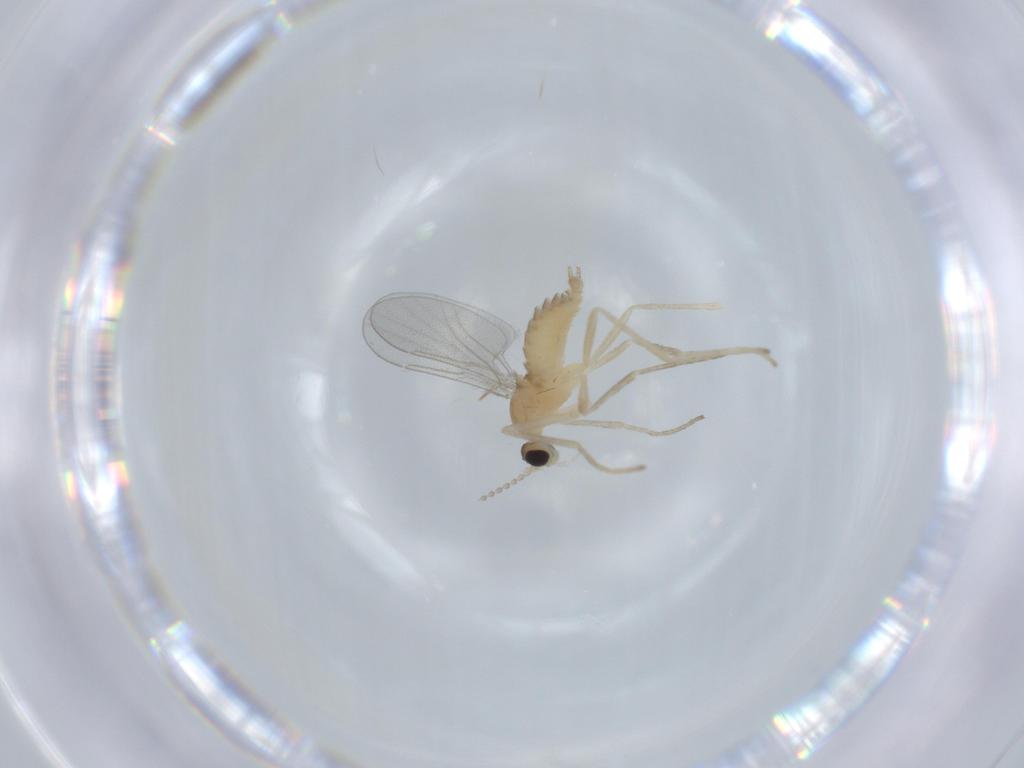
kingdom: Animalia
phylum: Arthropoda
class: Insecta
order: Diptera
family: Cecidomyiidae
